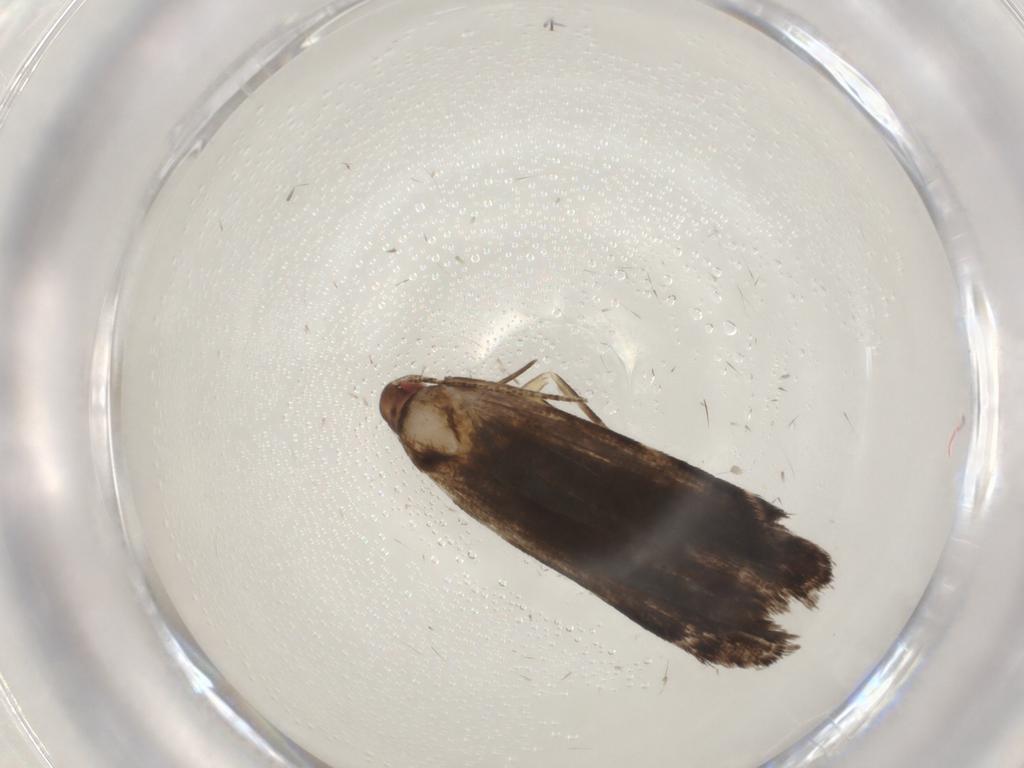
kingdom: Animalia
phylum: Arthropoda
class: Insecta
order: Lepidoptera
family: Gelechiidae
